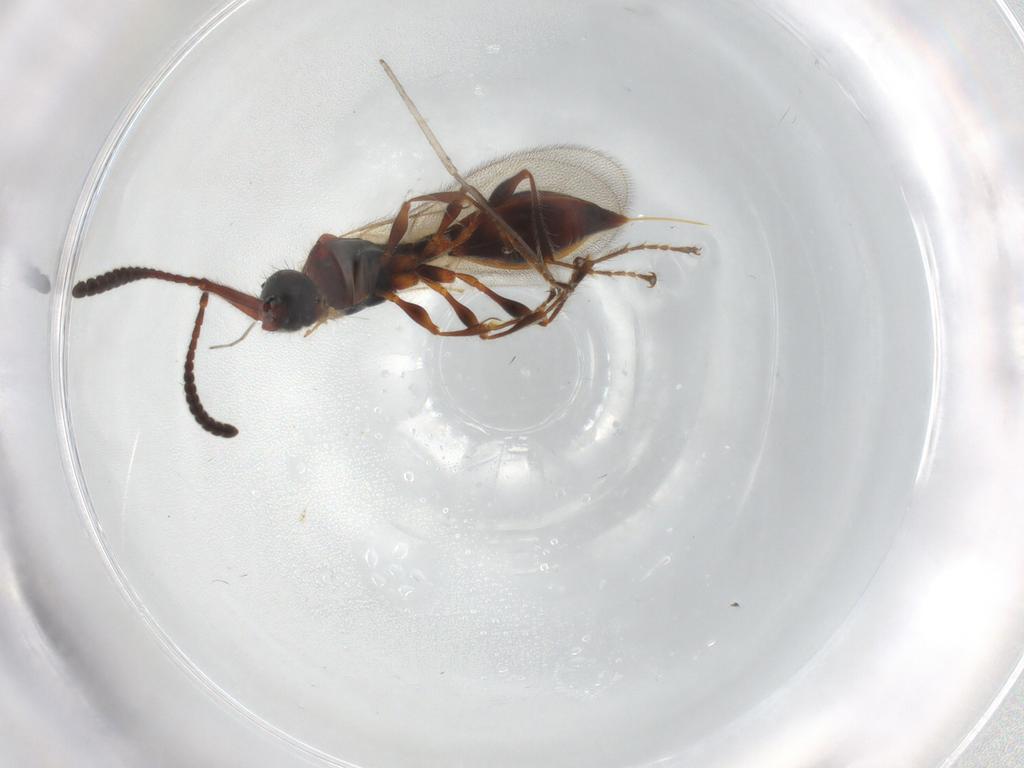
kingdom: Animalia
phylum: Arthropoda
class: Insecta
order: Hymenoptera
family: Diapriidae
